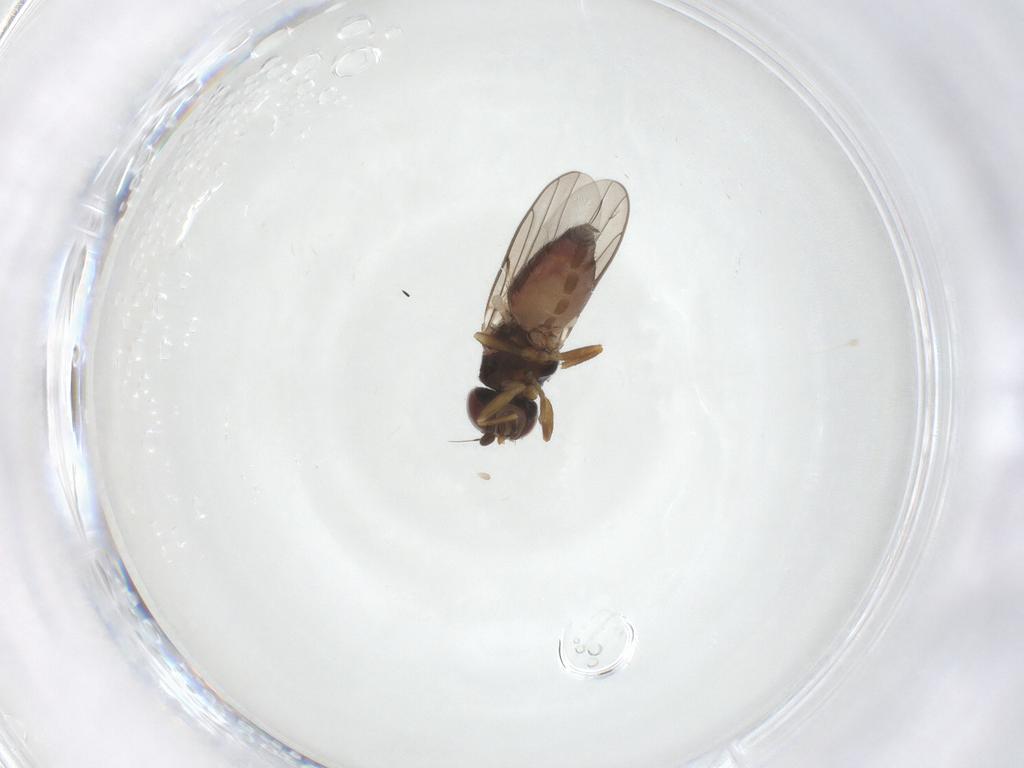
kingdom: Animalia
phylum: Arthropoda
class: Insecta
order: Diptera
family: Chloropidae
